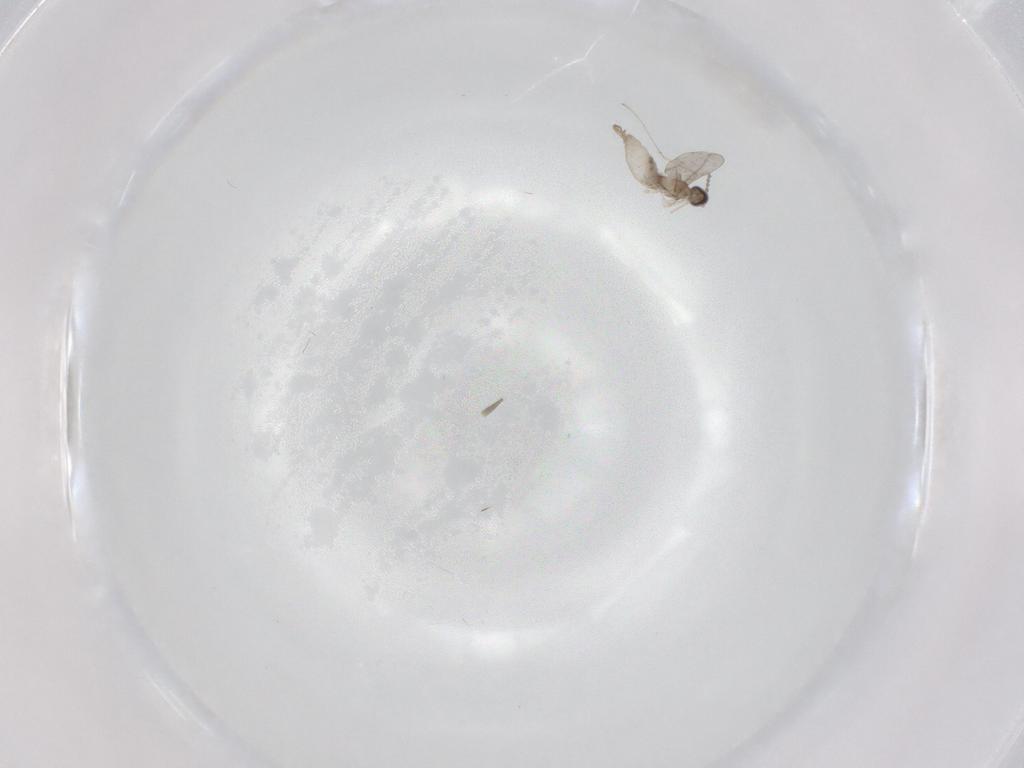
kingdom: Animalia
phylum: Arthropoda
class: Insecta
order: Diptera
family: Cecidomyiidae
